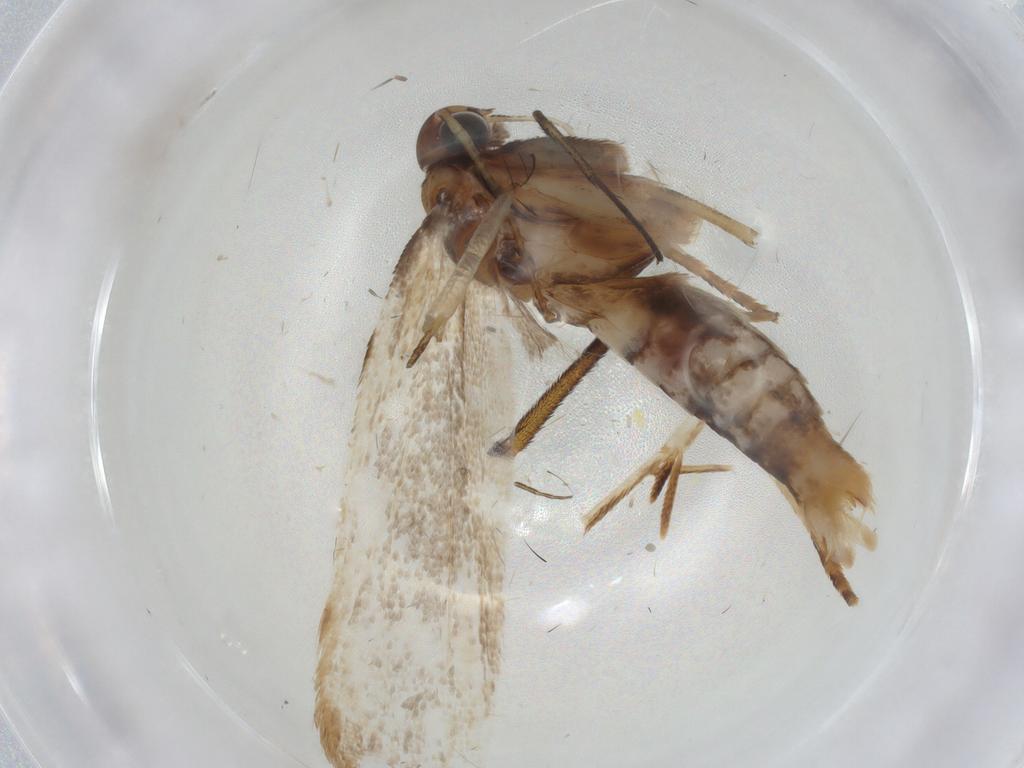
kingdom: Animalia
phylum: Arthropoda
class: Insecta
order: Lepidoptera
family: Gelechiidae
